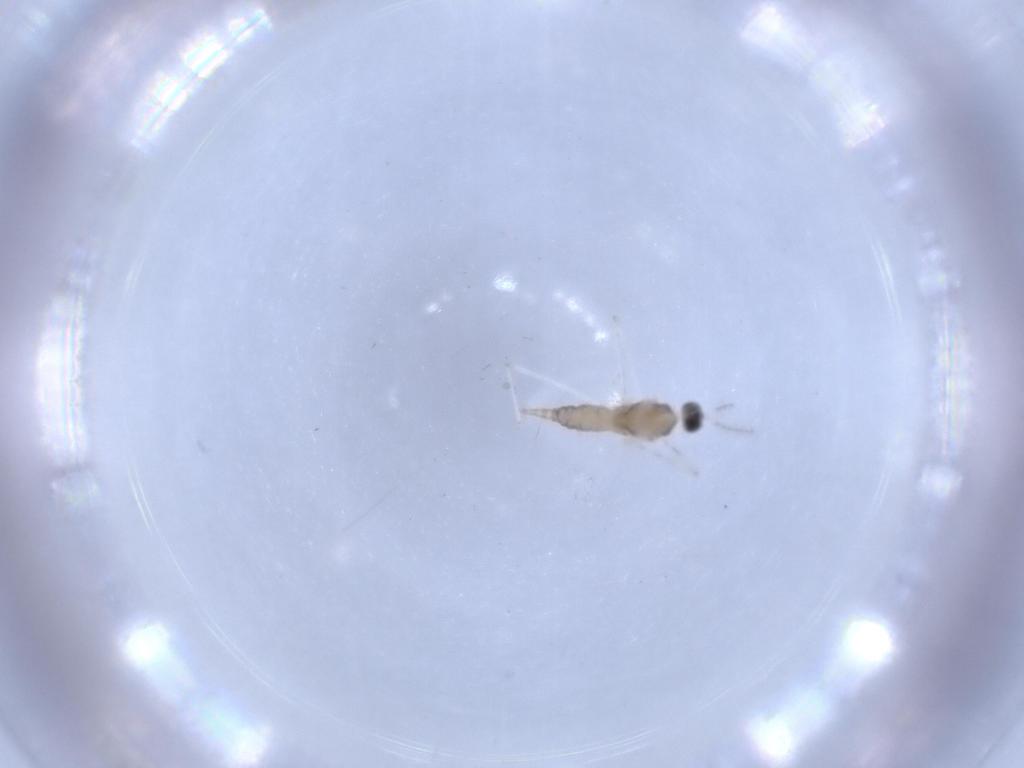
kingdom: Animalia
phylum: Arthropoda
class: Insecta
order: Diptera
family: Cecidomyiidae
